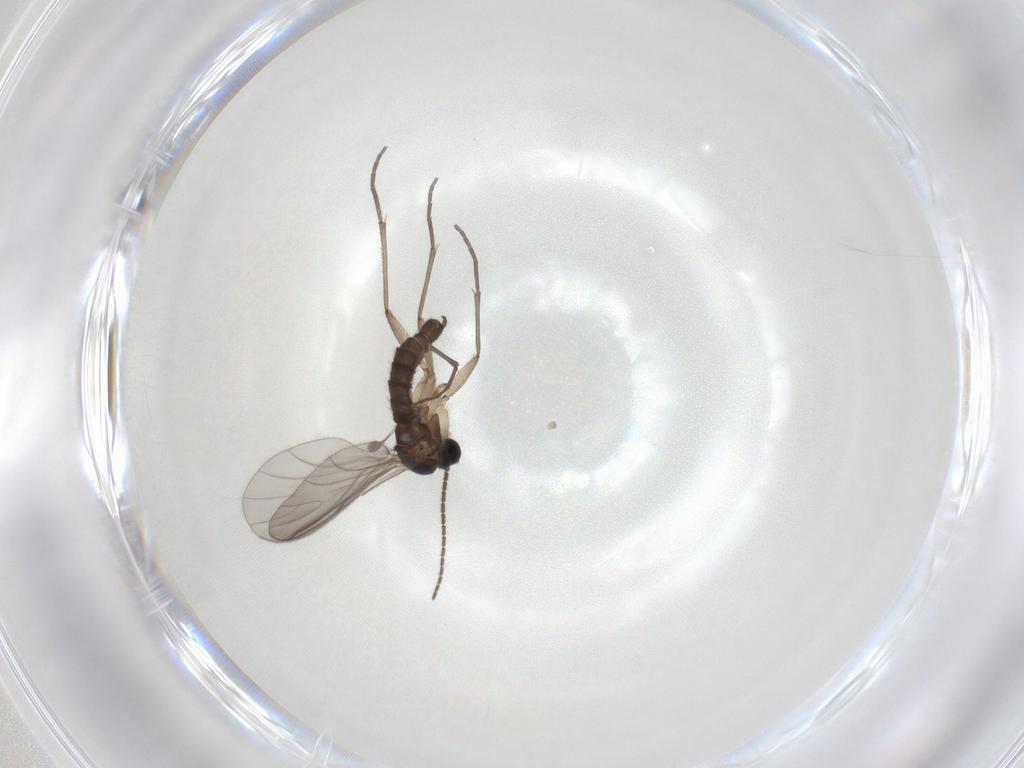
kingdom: Animalia
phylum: Arthropoda
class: Insecta
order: Diptera
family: Sciaridae
